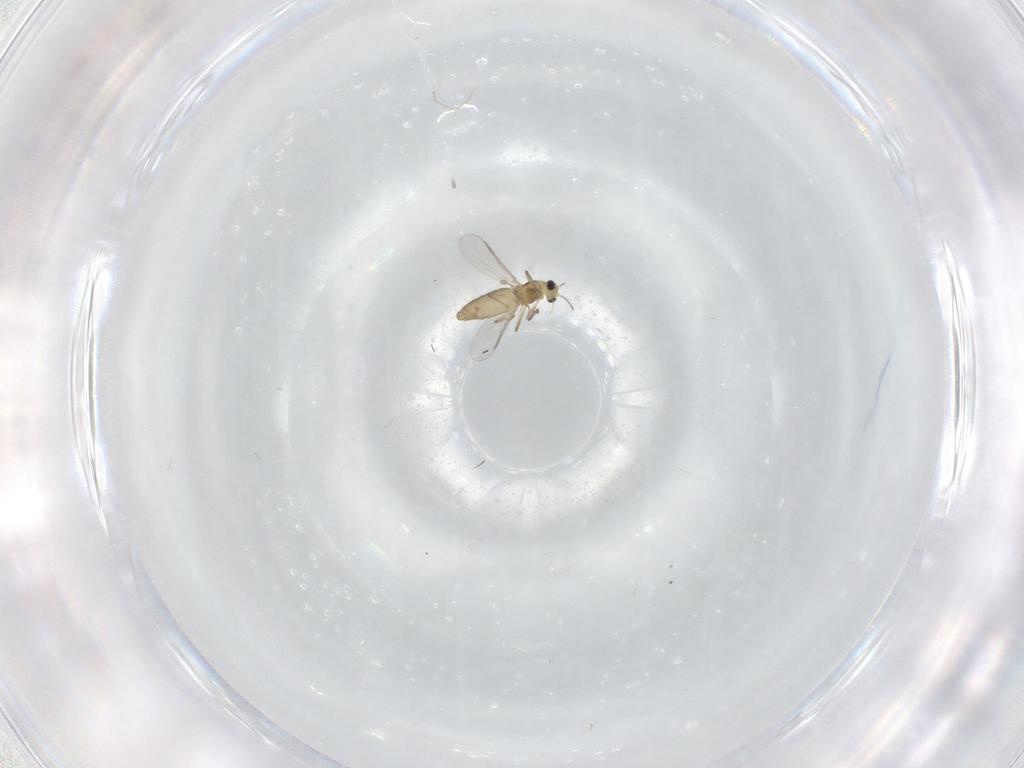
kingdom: Animalia
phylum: Arthropoda
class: Insecta
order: Diptera
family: Chironomidae
